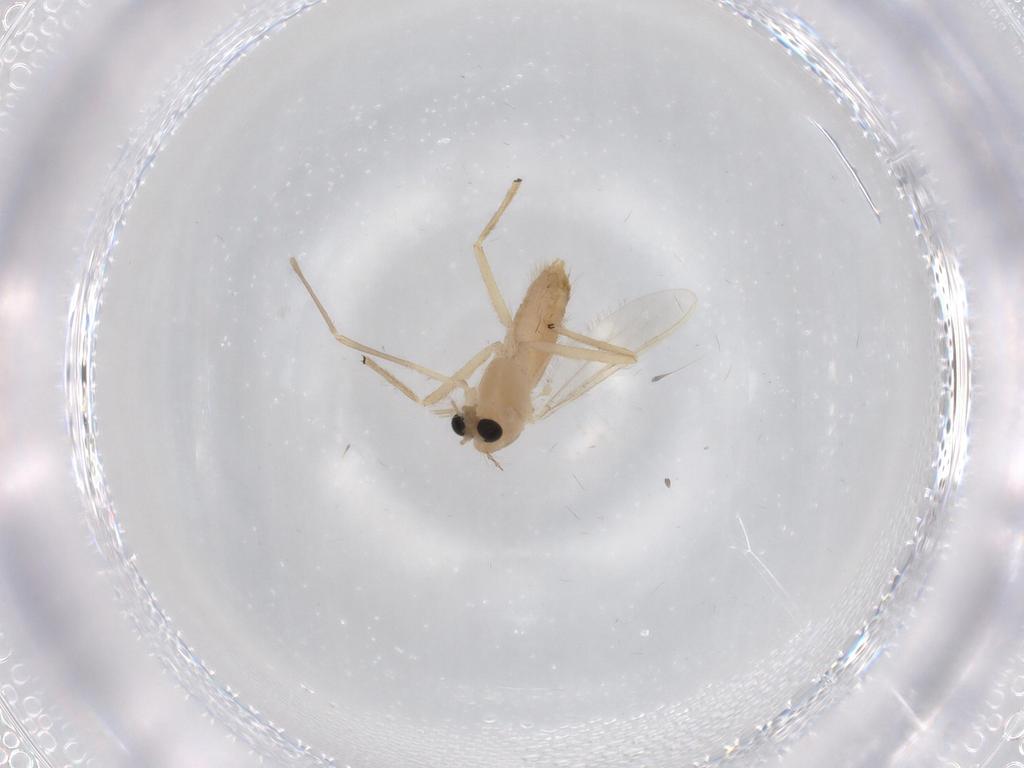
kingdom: Animalia
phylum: Arthropoda
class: Insecta
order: Diptera
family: Chironomidae
